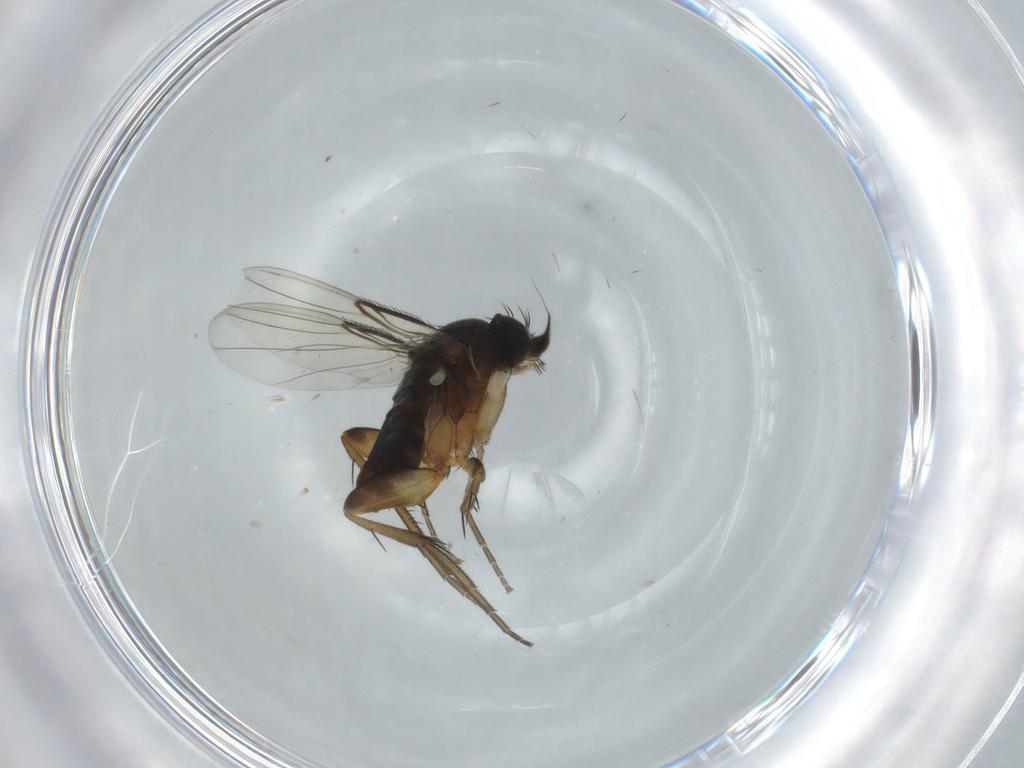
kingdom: Animalia
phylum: Arthropoda
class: Insecta
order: Diptera
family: Phoridae
